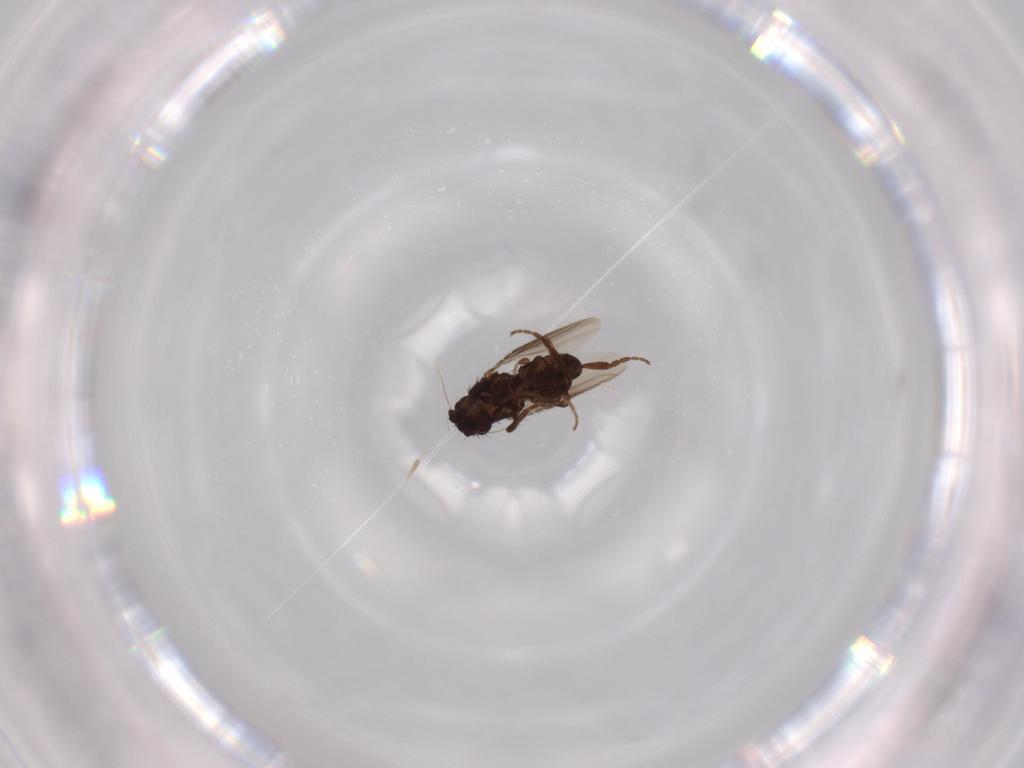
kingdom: Animalia
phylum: Arthropoda
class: Insecta
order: Diptera
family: Sphaeroceridae
